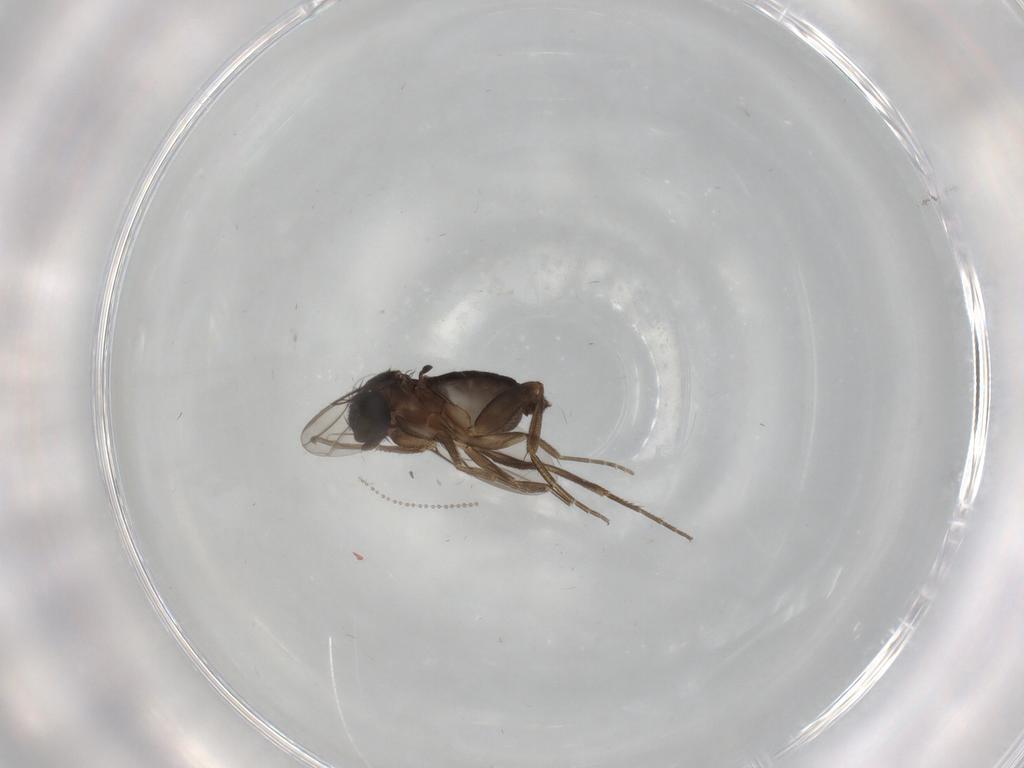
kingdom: Animalia
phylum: Arthropoda
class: Insecta
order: Diptera
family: Phoridae
